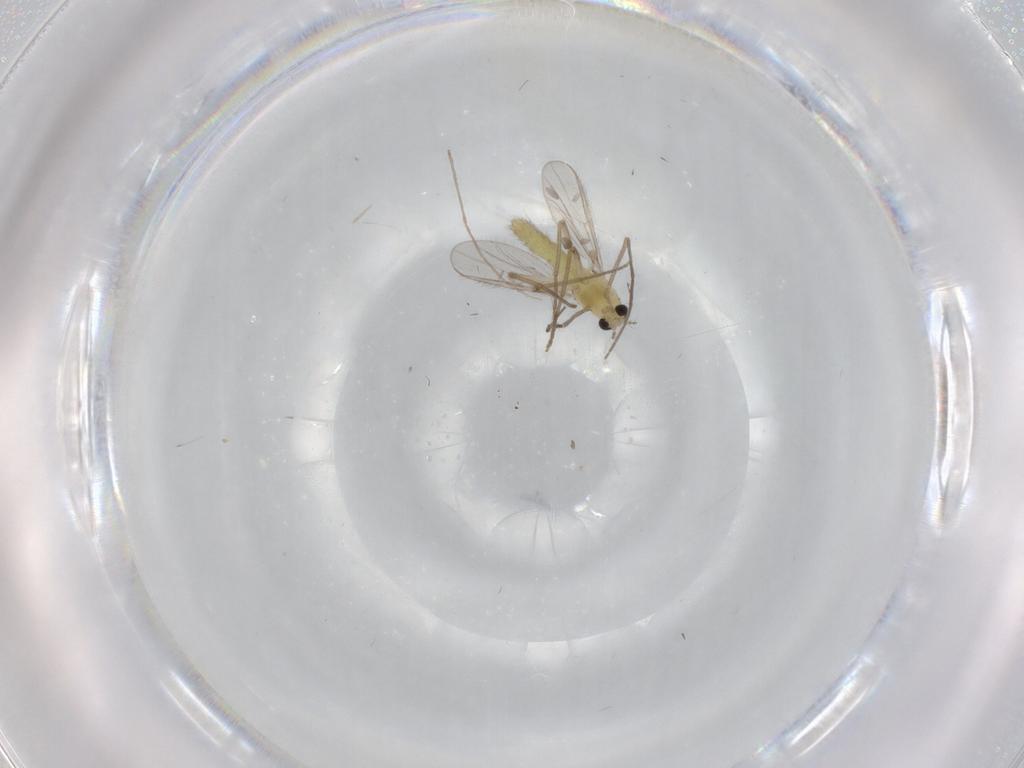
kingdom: Animalia
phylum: Arthropoda
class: Insecta
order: Diptera
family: Chironomidae
